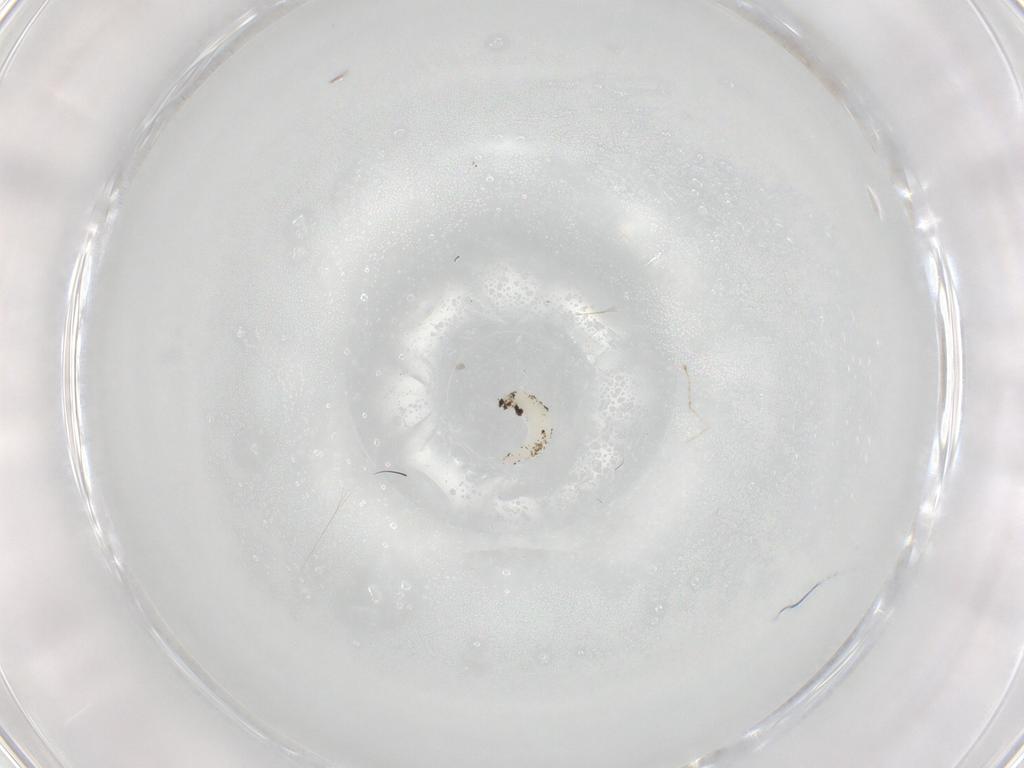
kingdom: Animalia
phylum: Arthropoda
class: Insecta
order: Diptera
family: Chironomidae
